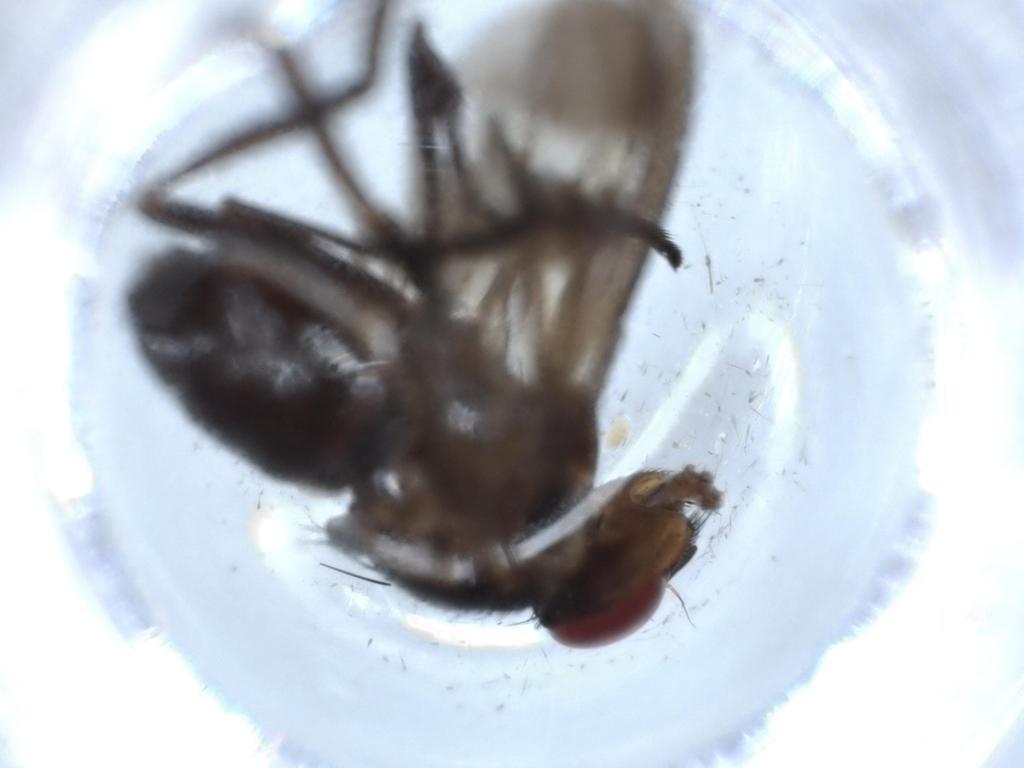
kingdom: Animalia
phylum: Arthropoda
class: Insecta
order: Diptera
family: Calliphoridae
